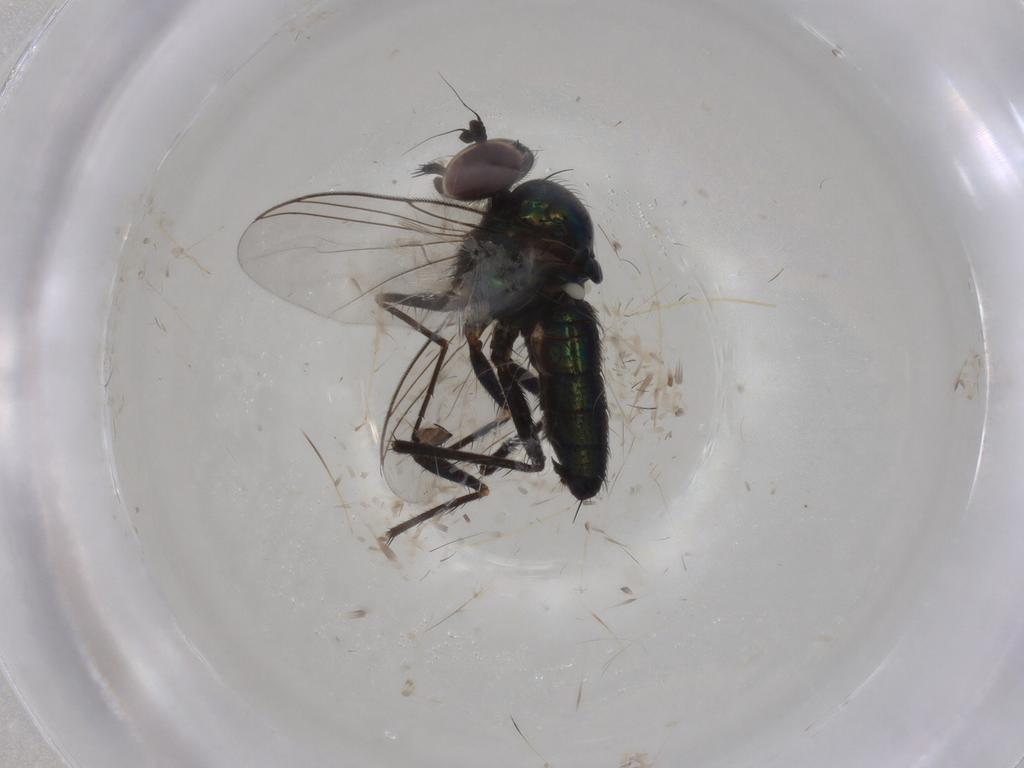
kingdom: Animalia
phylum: Arthropoda
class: Insecta
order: Diptera
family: Dolichopodidae
